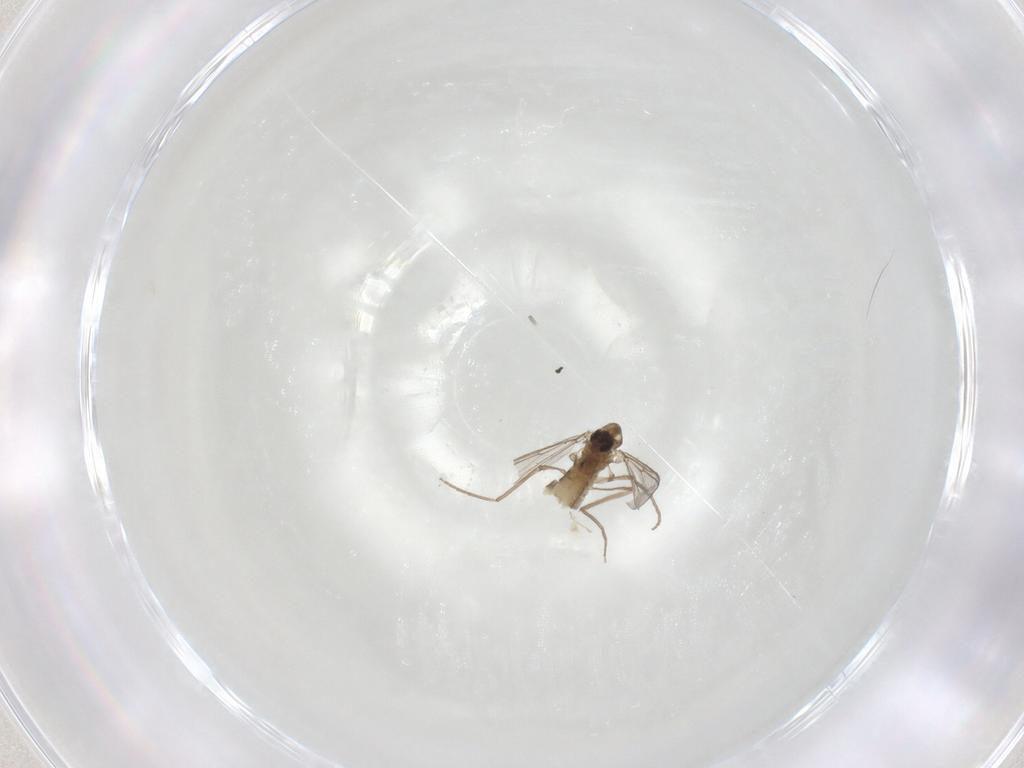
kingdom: Animalia
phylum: Arthropoda
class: Insecta
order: Diptera
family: Chironomidae
